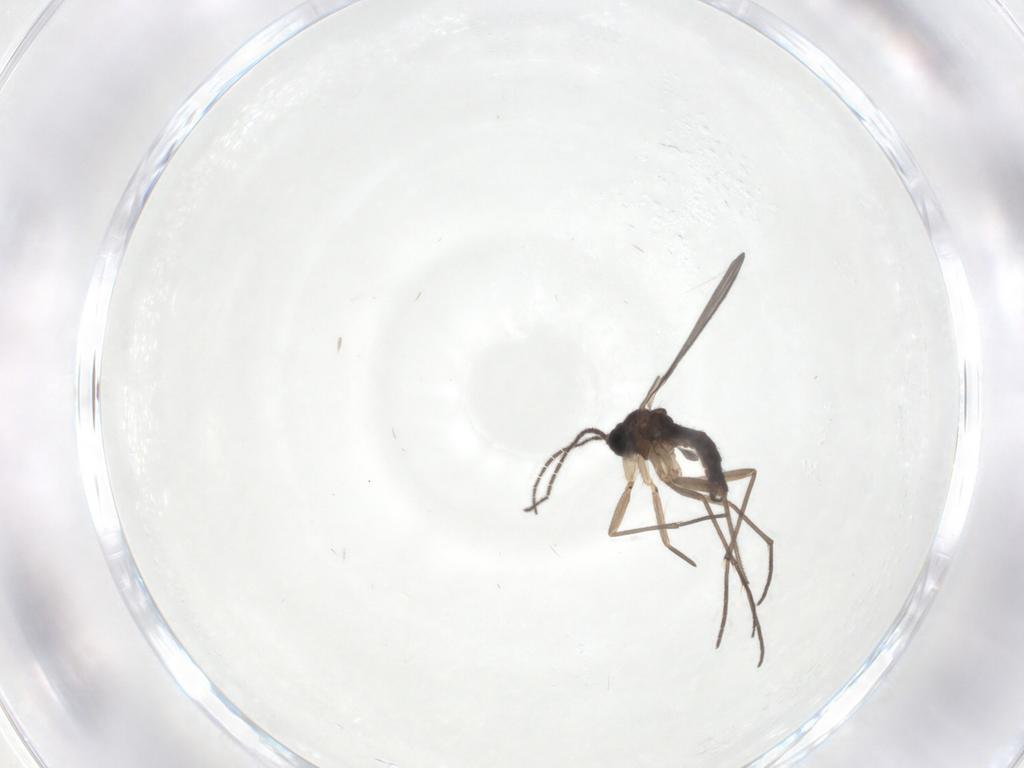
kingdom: Animalia
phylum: Arthropoda
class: Insecta
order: Diptera
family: Sciaridae
